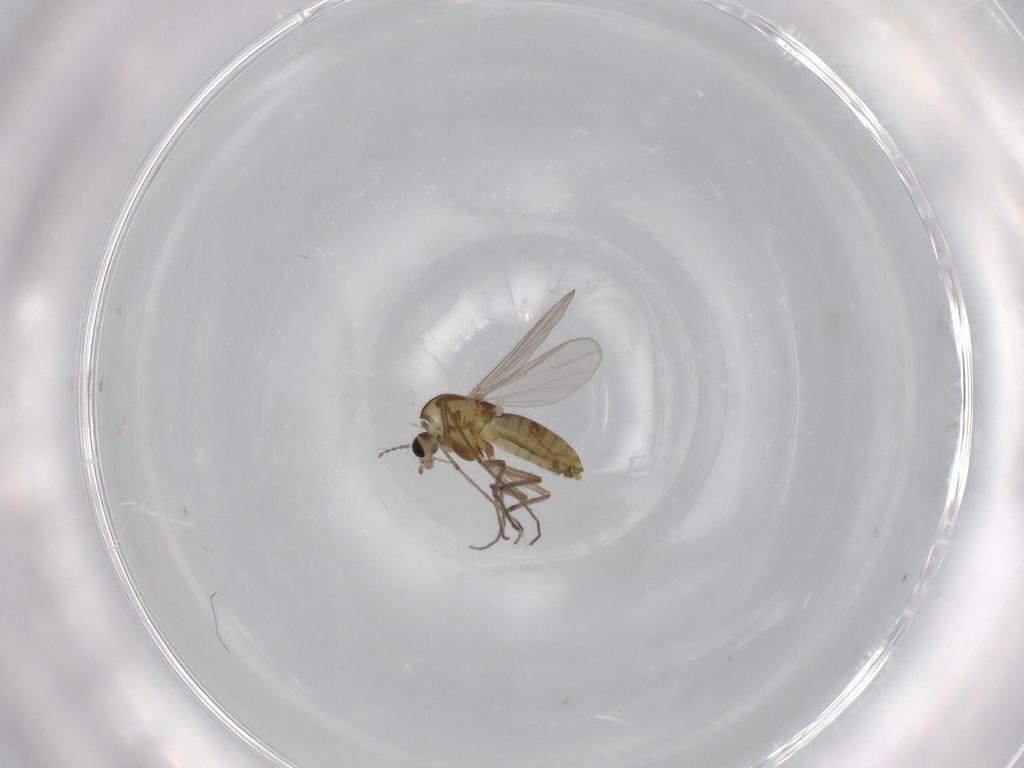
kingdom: Animalia
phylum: Arthropoda
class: Insecta
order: Diptera
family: Chironomidae
